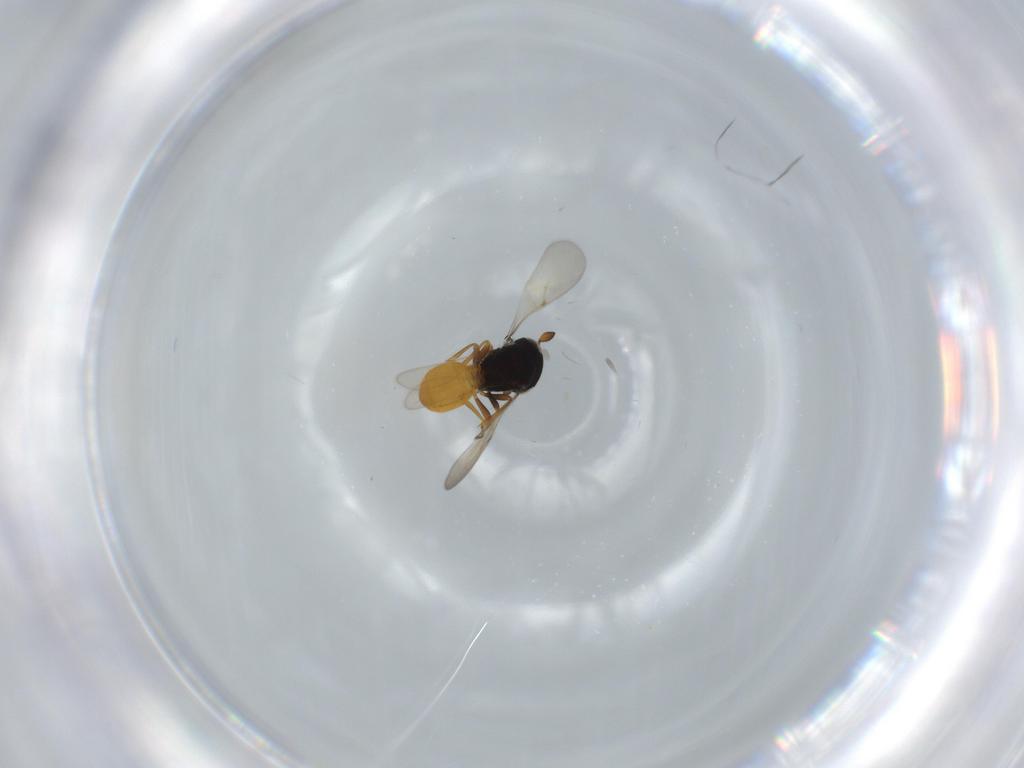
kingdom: Animalia
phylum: Arthropoda
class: Insecta
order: Hymenoptera
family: Scelionidae
